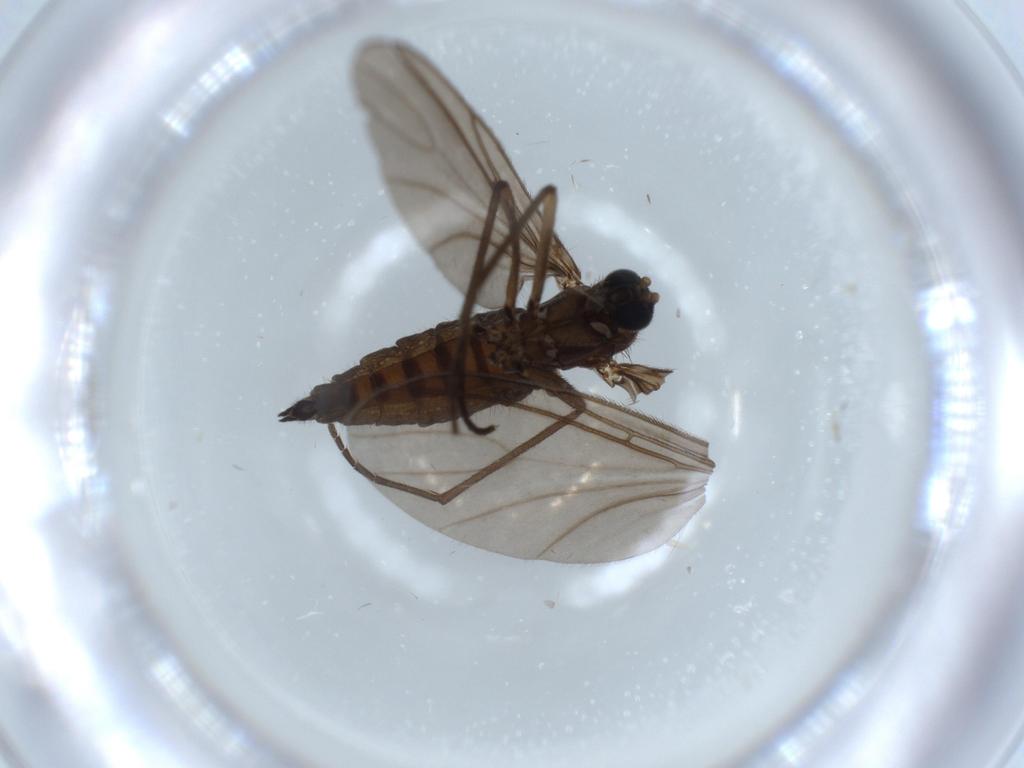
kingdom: Animalia
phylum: Arthropoda
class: Insecta
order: Diptera
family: Sciaridae
